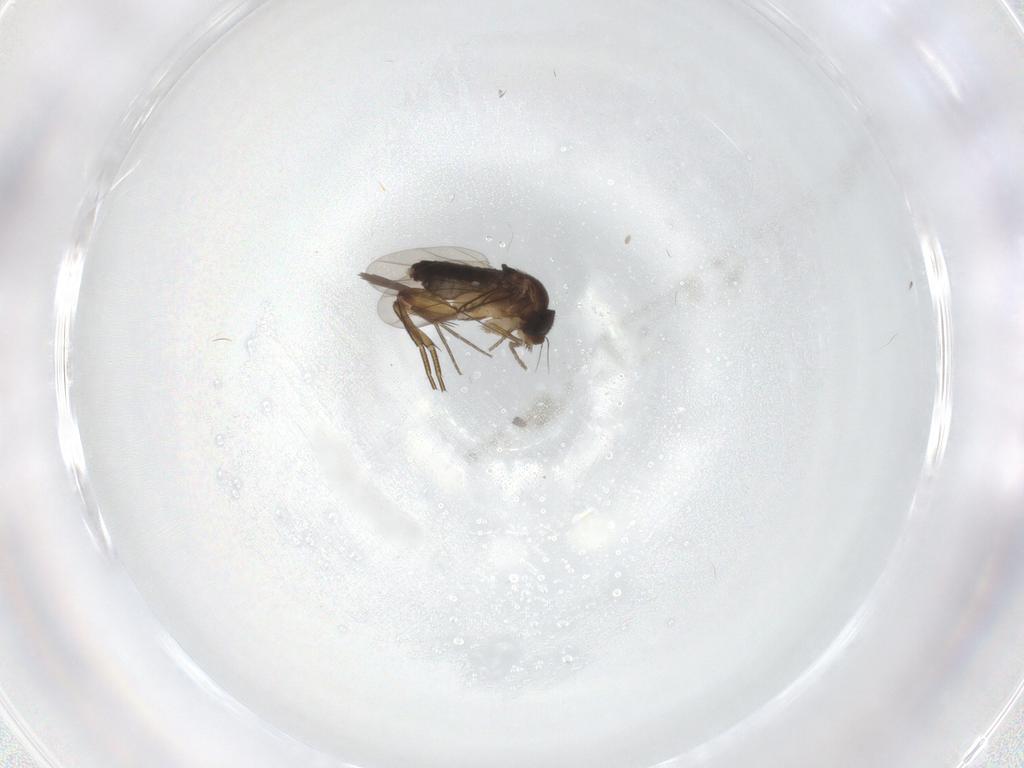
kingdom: Animalia
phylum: Arthropoda
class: Insecta
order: Diptera
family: Phoridae
